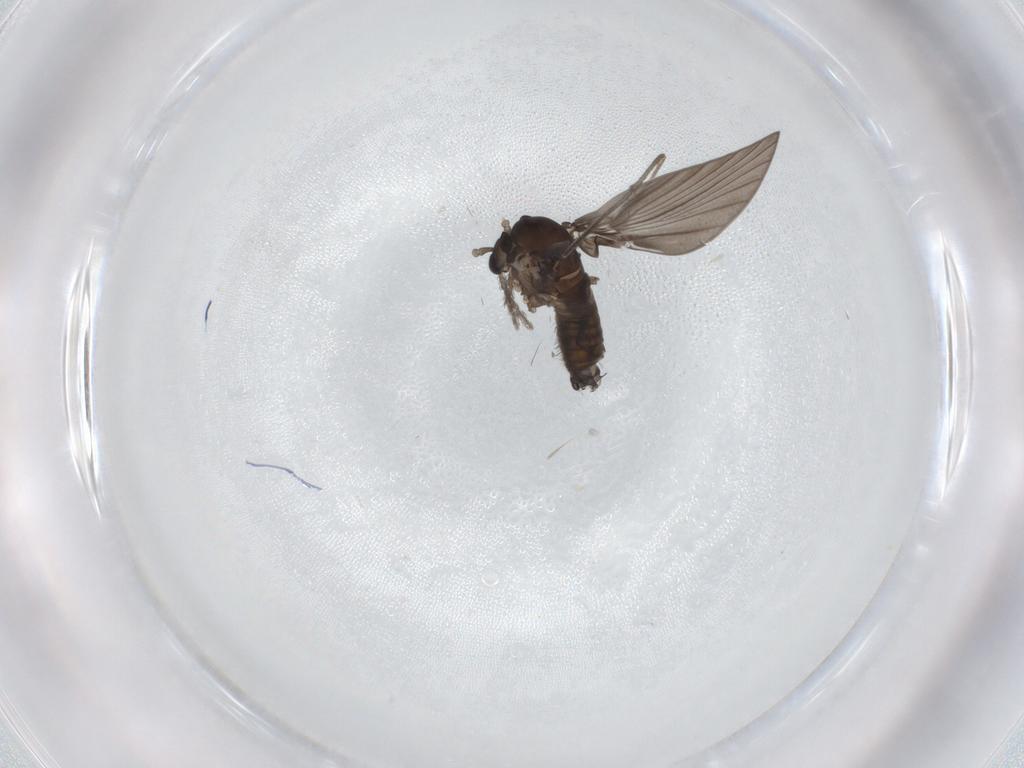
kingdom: Animalia
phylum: Arthropoda
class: Insecta
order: Diptera
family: Sciaridae
